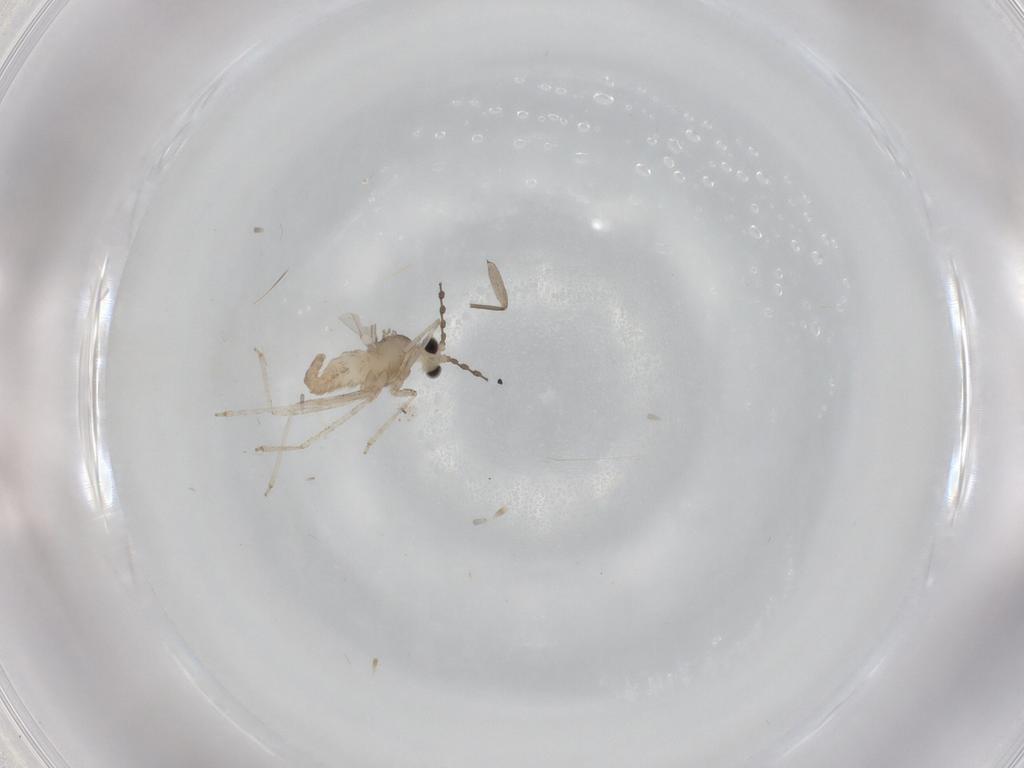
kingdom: Animalia
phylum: Arthropoda
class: Insecta
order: Diptera
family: Cecidomyiidae
